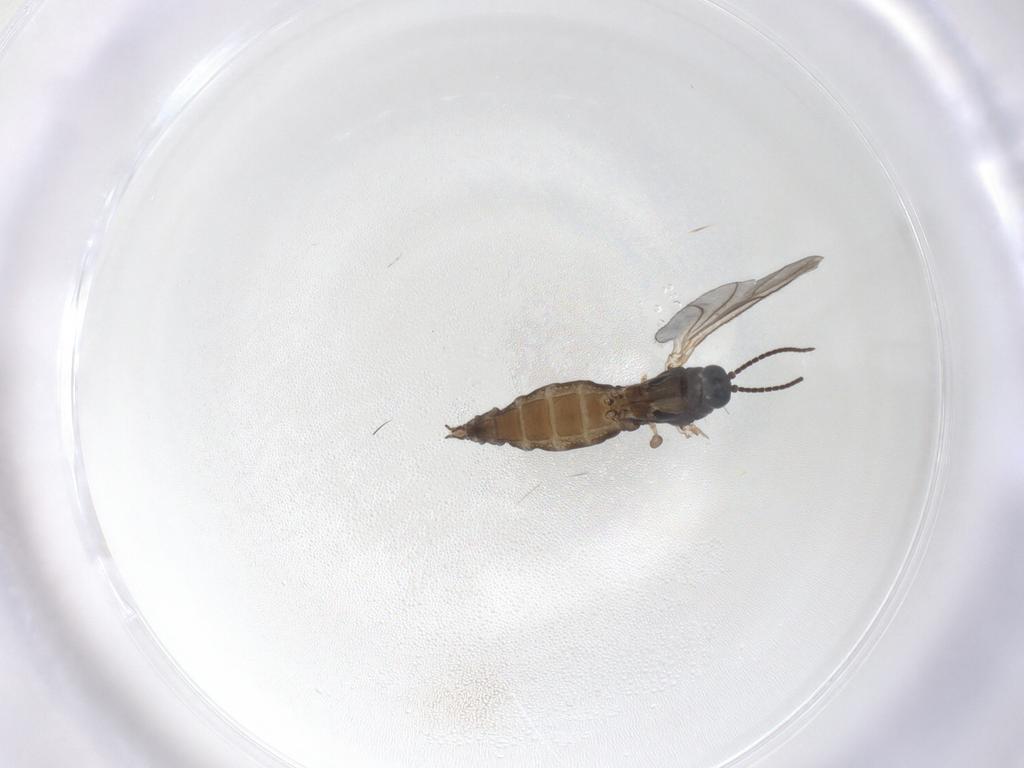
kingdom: Animalia
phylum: Arthropoda
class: Insecta
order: Diptera
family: Sciaridae
